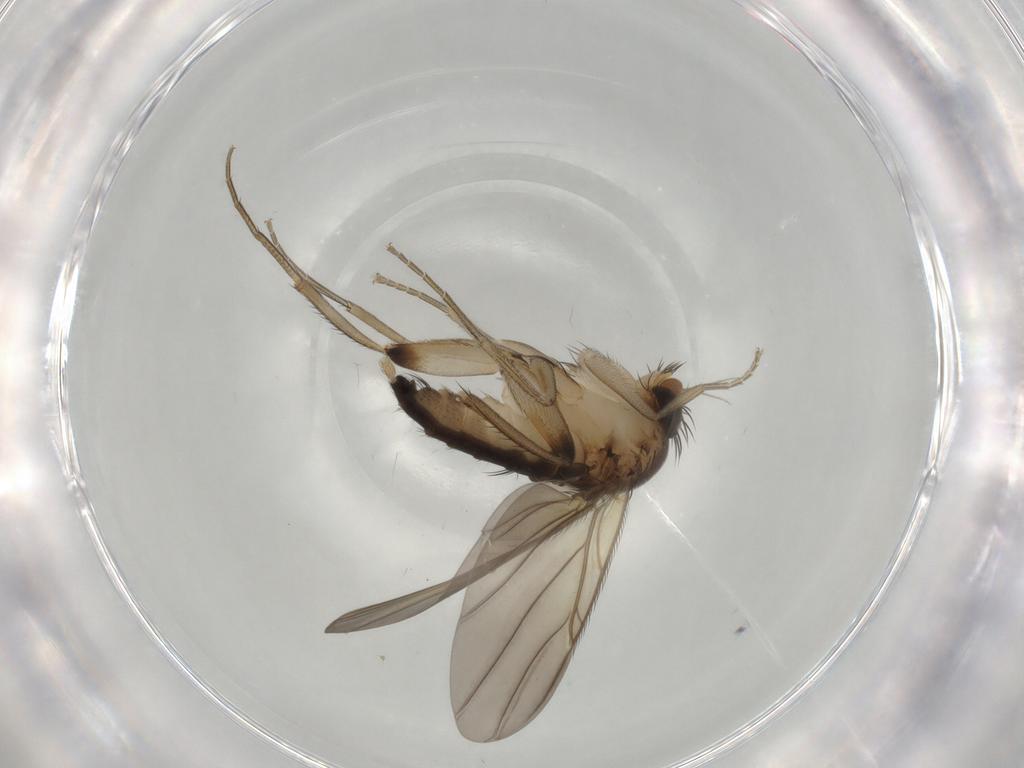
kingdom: Animalia
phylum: Arthropoda
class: Insecta
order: Diptera
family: Phoridae
